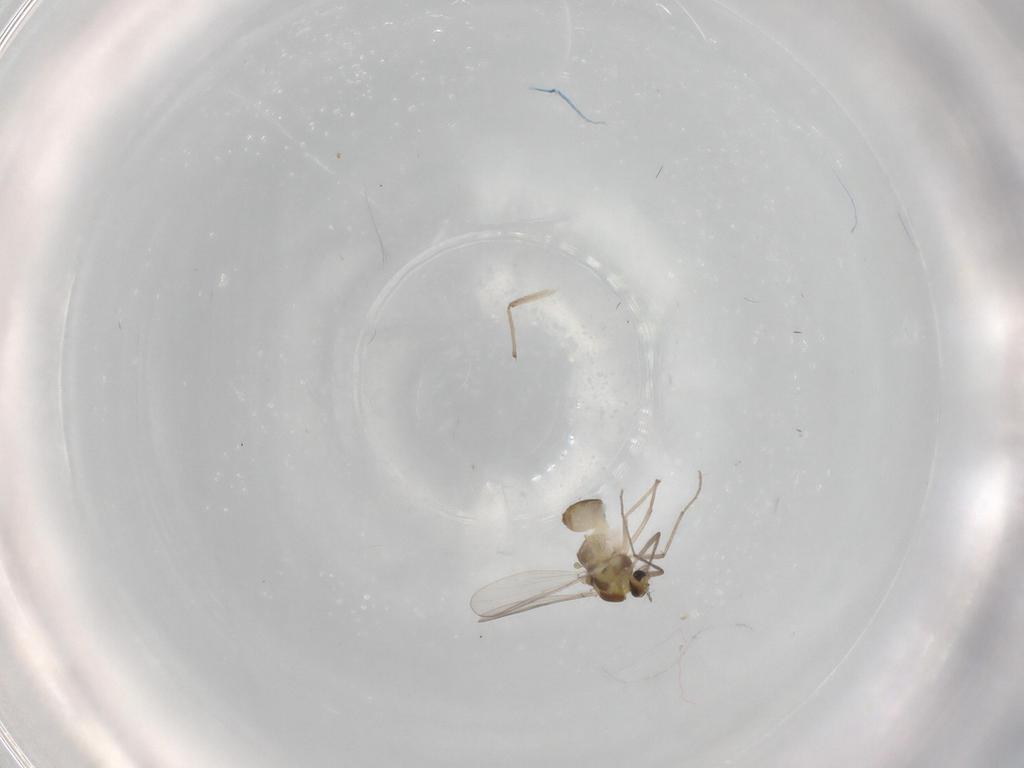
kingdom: Animalia
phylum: Arthropoda
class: Insecta
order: Diptera
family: Chironomidae
